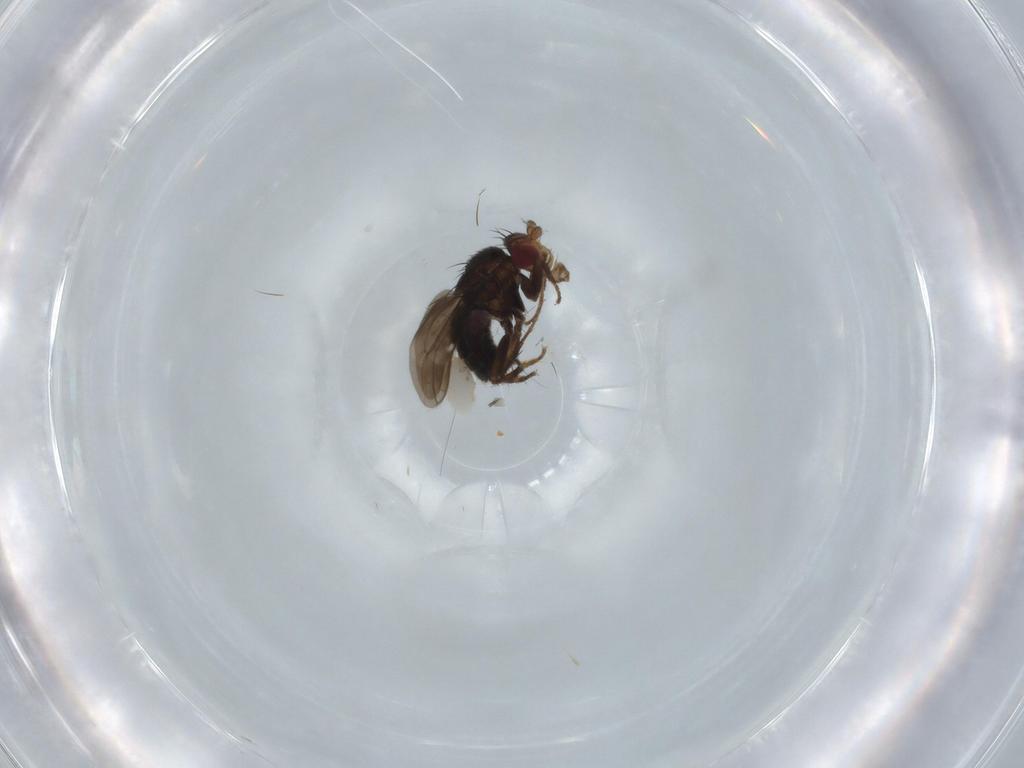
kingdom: Animalia
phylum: Arthropoda
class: Insecta
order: Diptera
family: Sphaeroceridae
